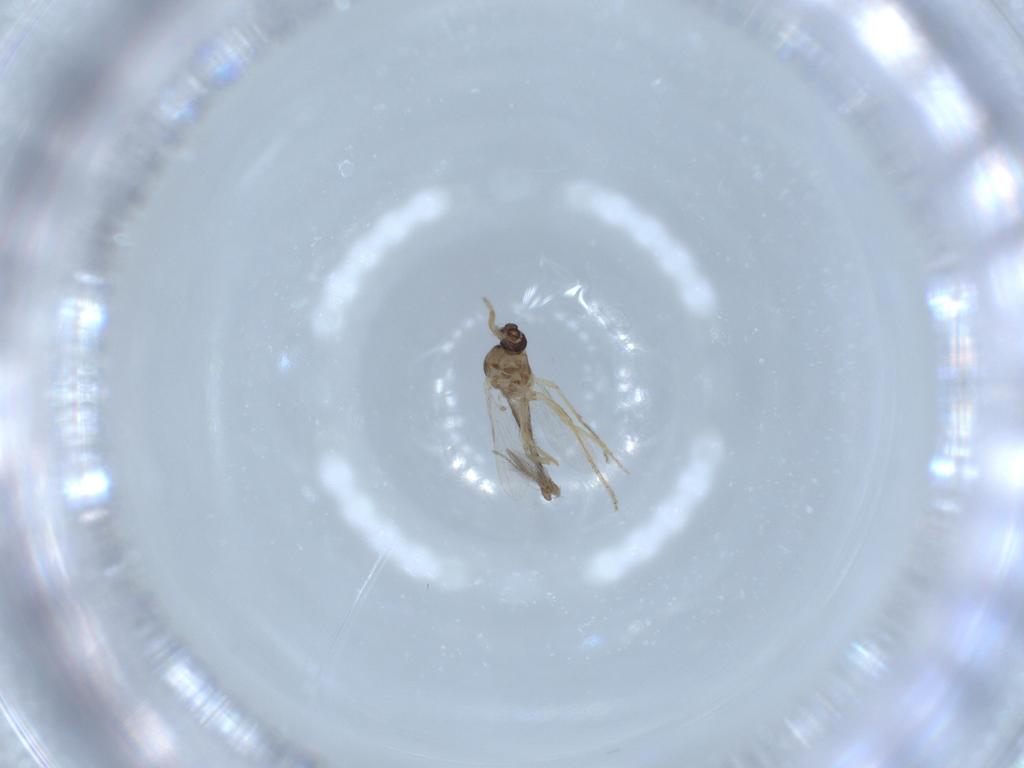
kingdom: Animalia
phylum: Arthropoda
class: Insecta
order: Diptera
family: Ceratopogonidae
